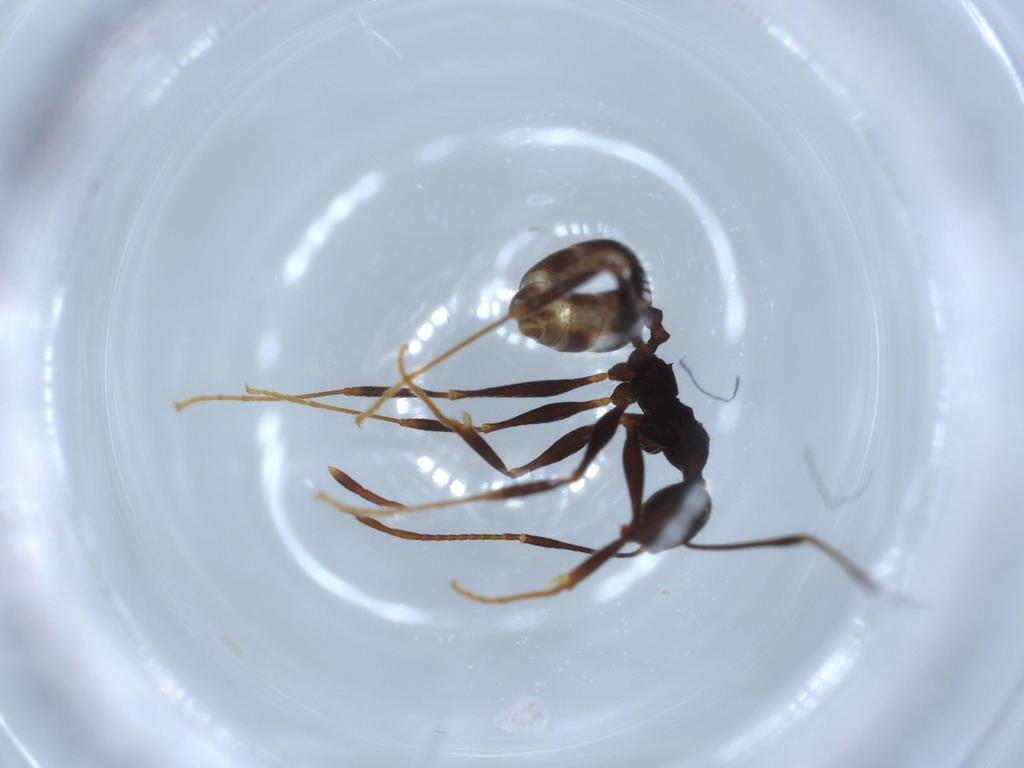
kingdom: Animalia
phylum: Arthropoda
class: Insecta
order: Hymenoptera
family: Formicidae
